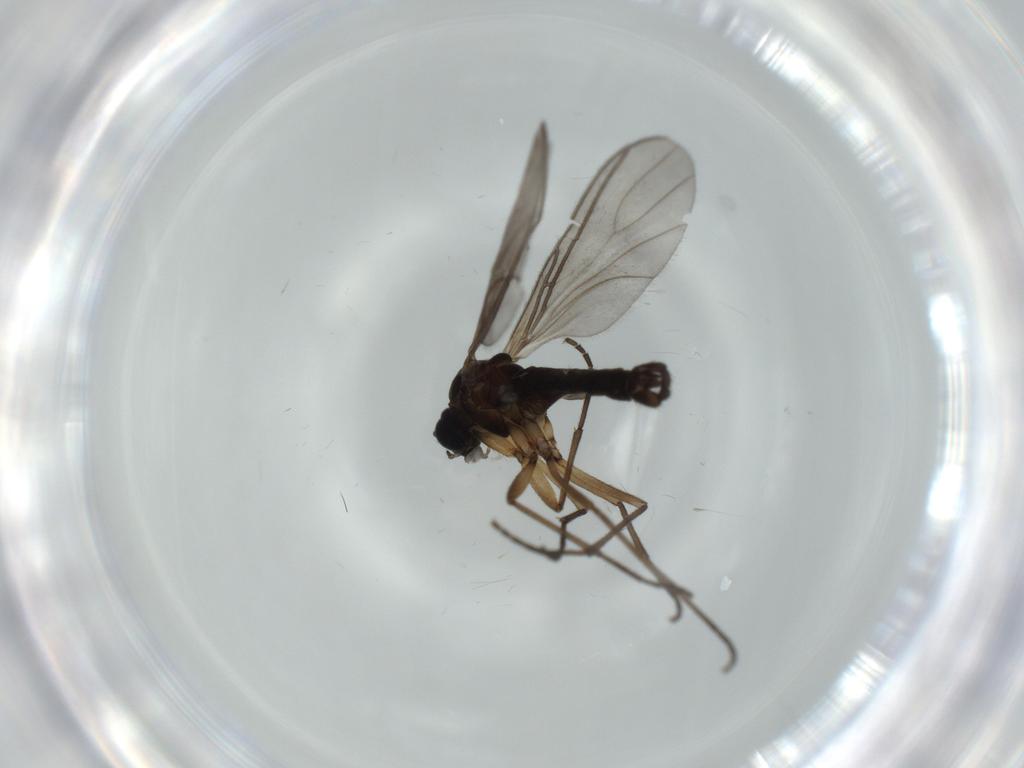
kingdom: Animalia
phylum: Arthropoda
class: Insecta
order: Diptera
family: Sciaridae
